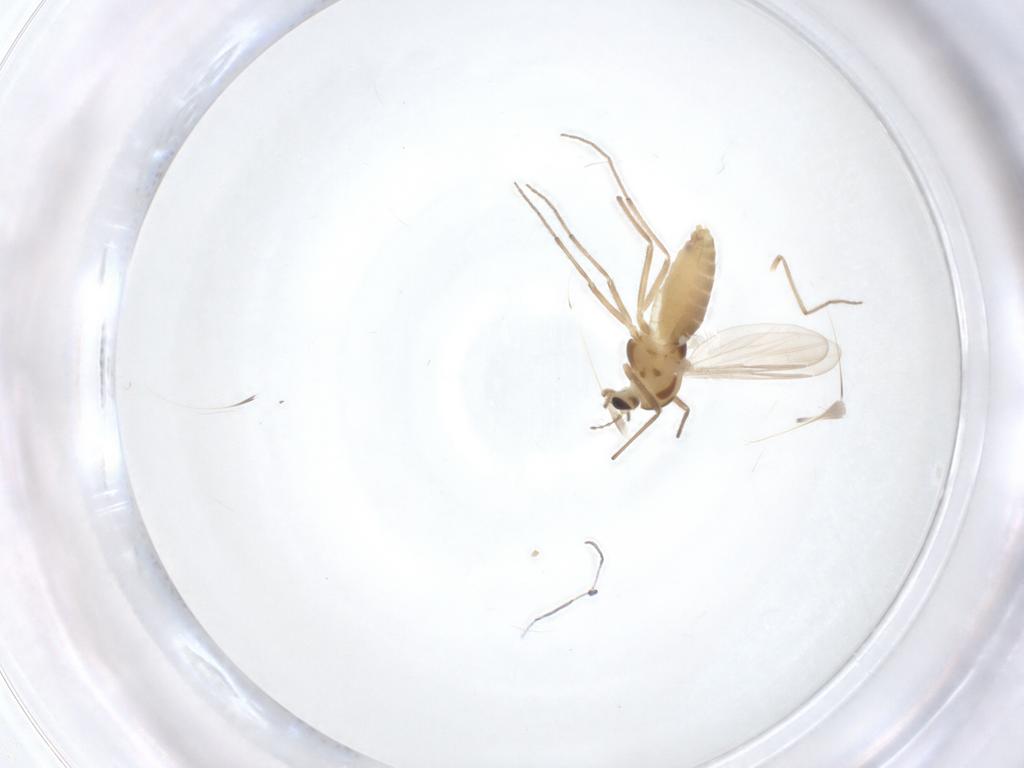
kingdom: Animalia
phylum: Arthropoda
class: Insecta
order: Diptera
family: Chironomidae
